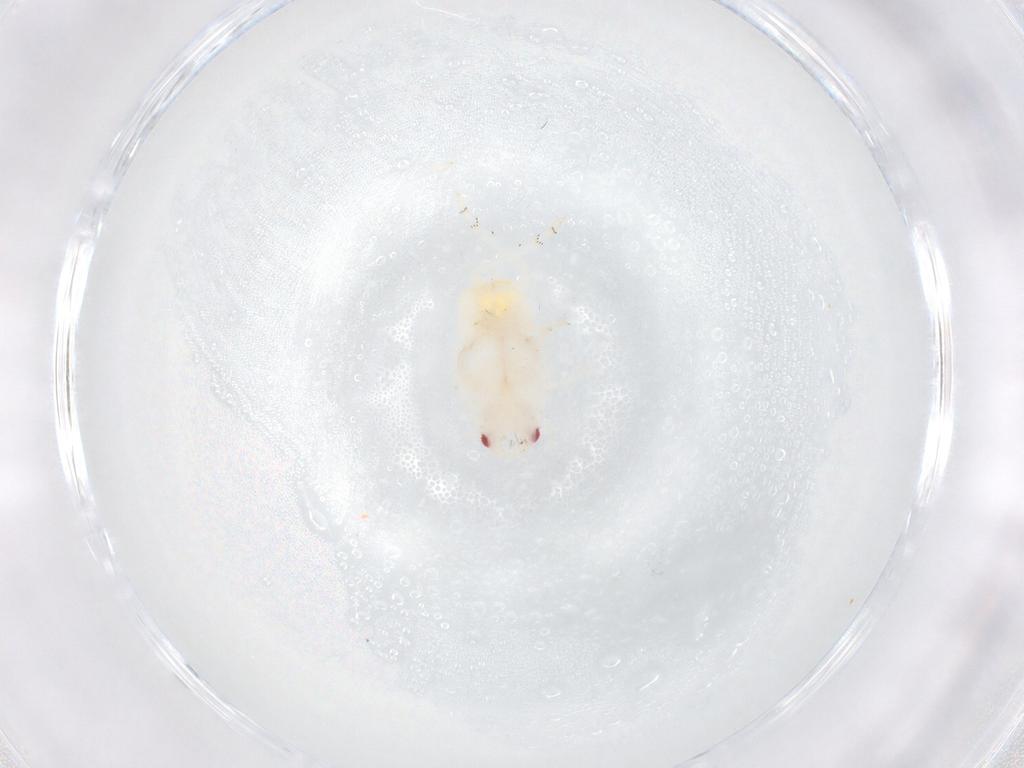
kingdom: Animalia
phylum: Arthropoda
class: Insecta
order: Hemiptera
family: Flatidae
